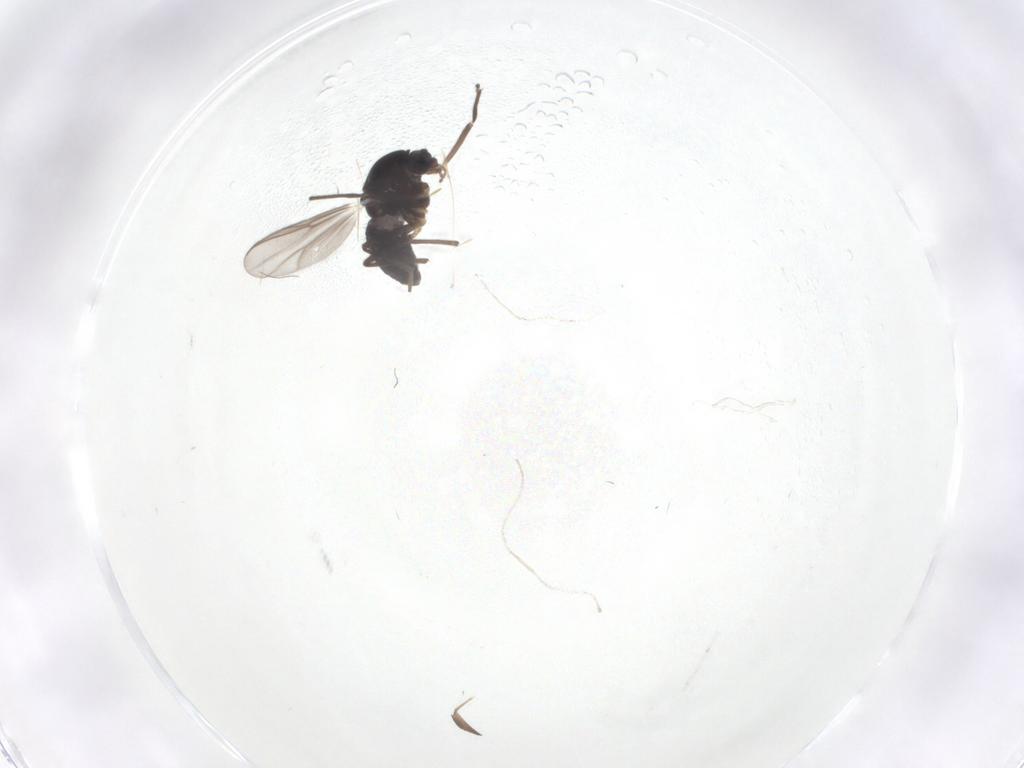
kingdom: Animalia
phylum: Arthropoda
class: Insecta
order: Diptera
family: Chironomidae
